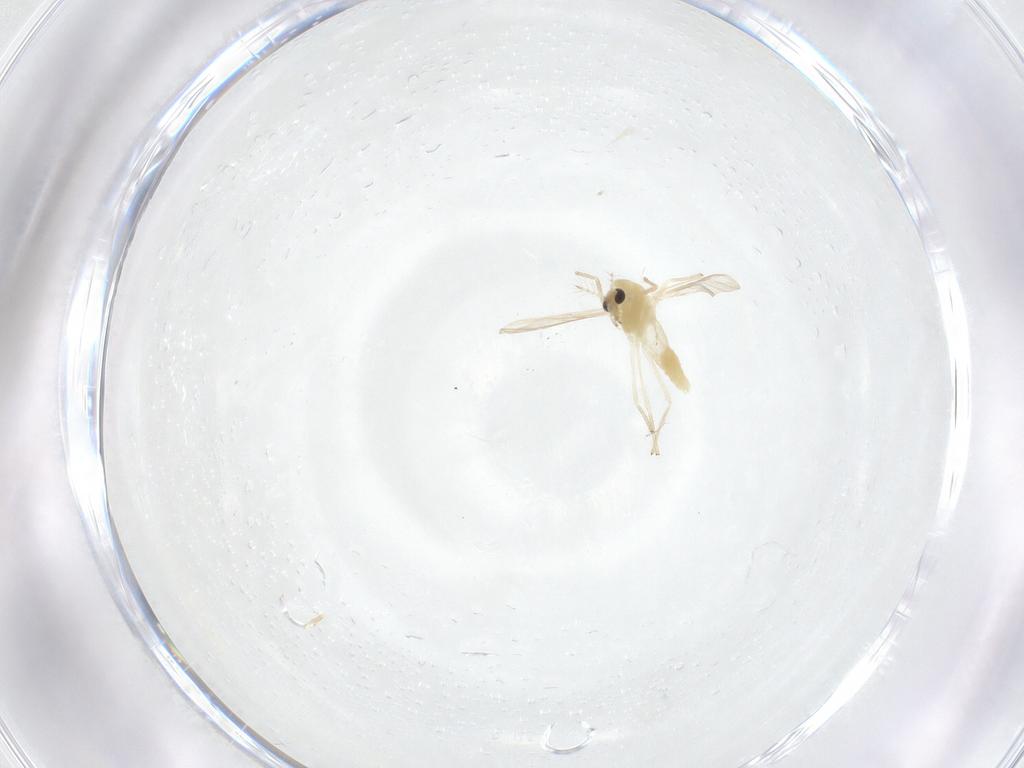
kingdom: Animalia
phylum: Arthropoda
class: Insecta
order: Diptera
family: Chironomidae
